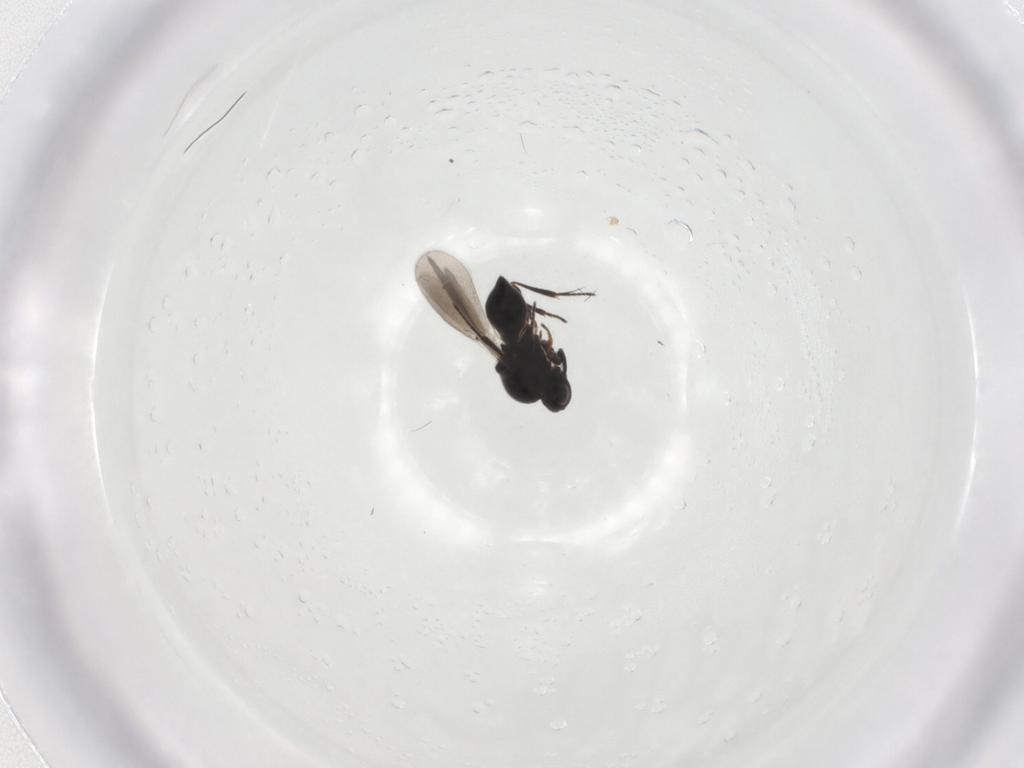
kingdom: Animalia
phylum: Arthropoda
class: Insecta
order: Hymenoptera
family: Platygastridae
